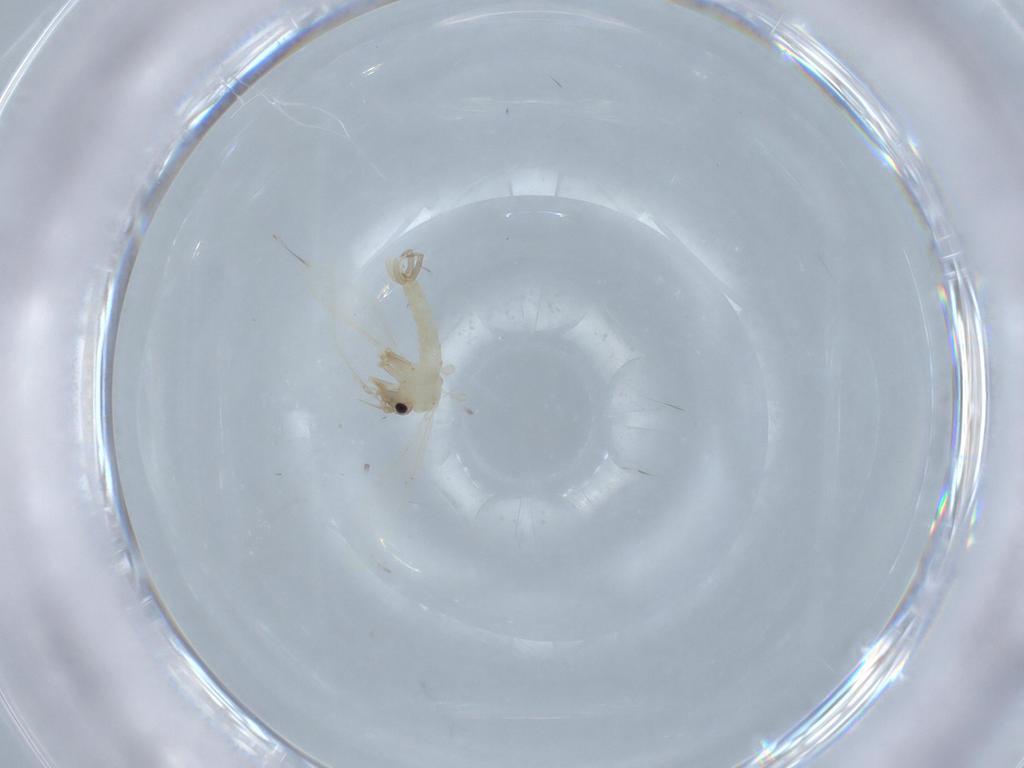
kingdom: Animalia
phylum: Arthropoda
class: Insecta
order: Diptera
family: Psychodidae
